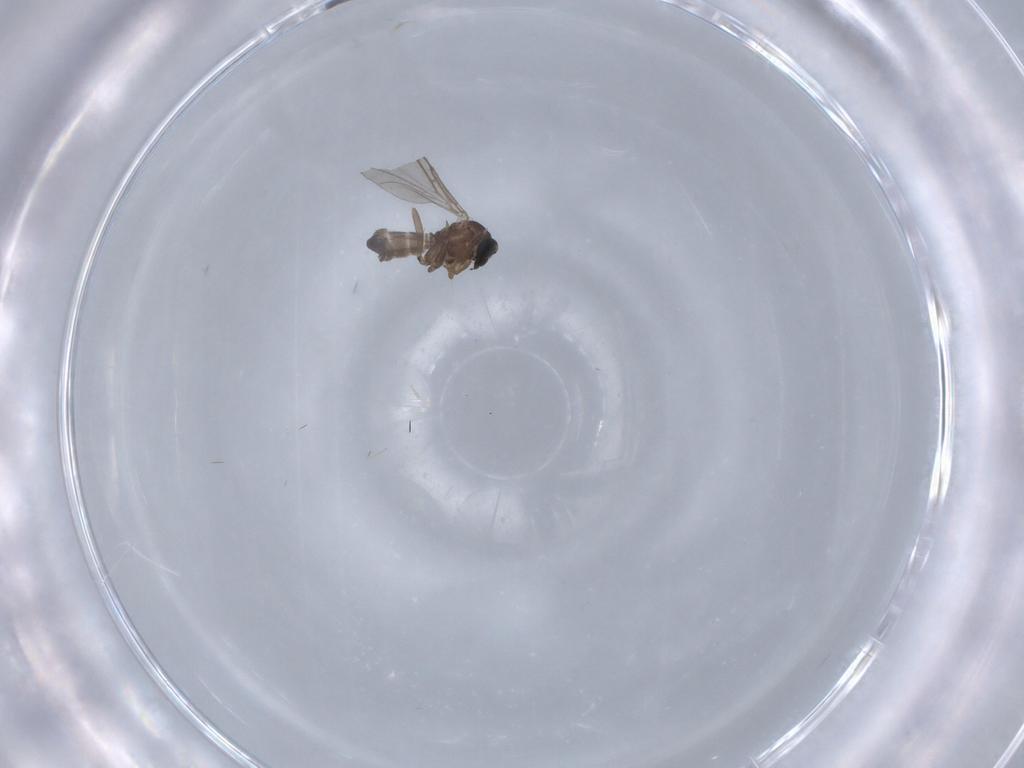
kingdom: Animalia
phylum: Arthropoda
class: Insecta
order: Diptera
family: Sciaridae
